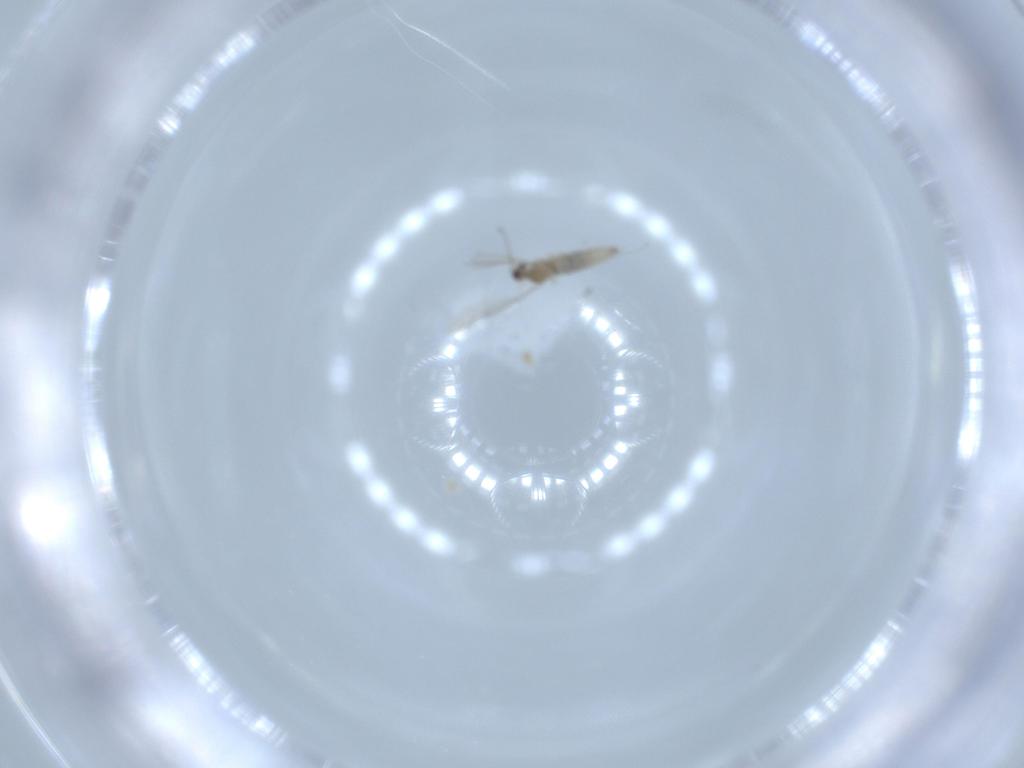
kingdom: Animalia
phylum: Arthropoda
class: Insecta
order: Diptera
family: Cecidomyiidae
